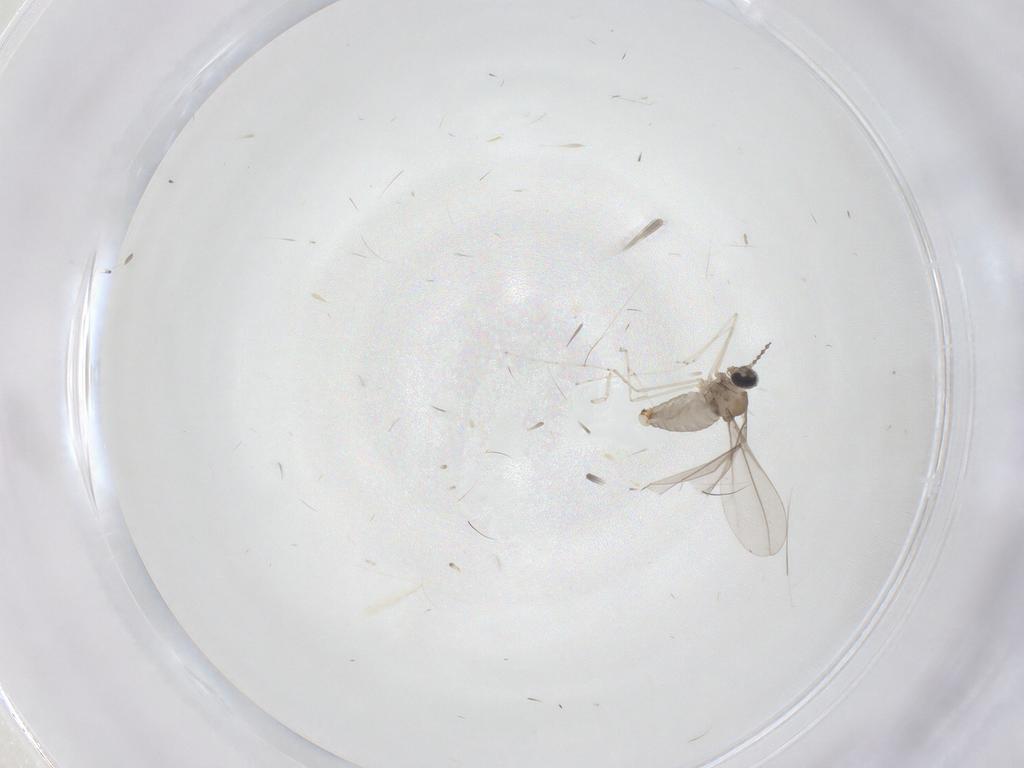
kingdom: Animalia
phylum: Arthropoda
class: Insecta
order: Diptera
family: Cecidomyiidae
